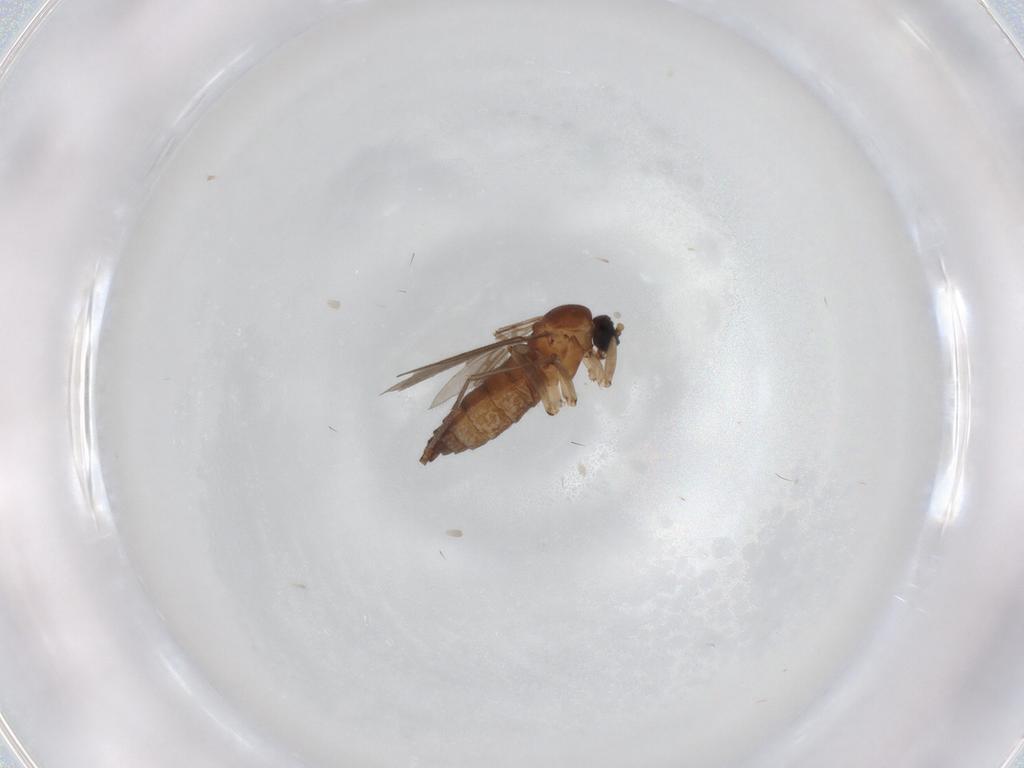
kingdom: Animalia
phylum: Arthropoda
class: Insecta
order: Diptera
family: Sciaridae
